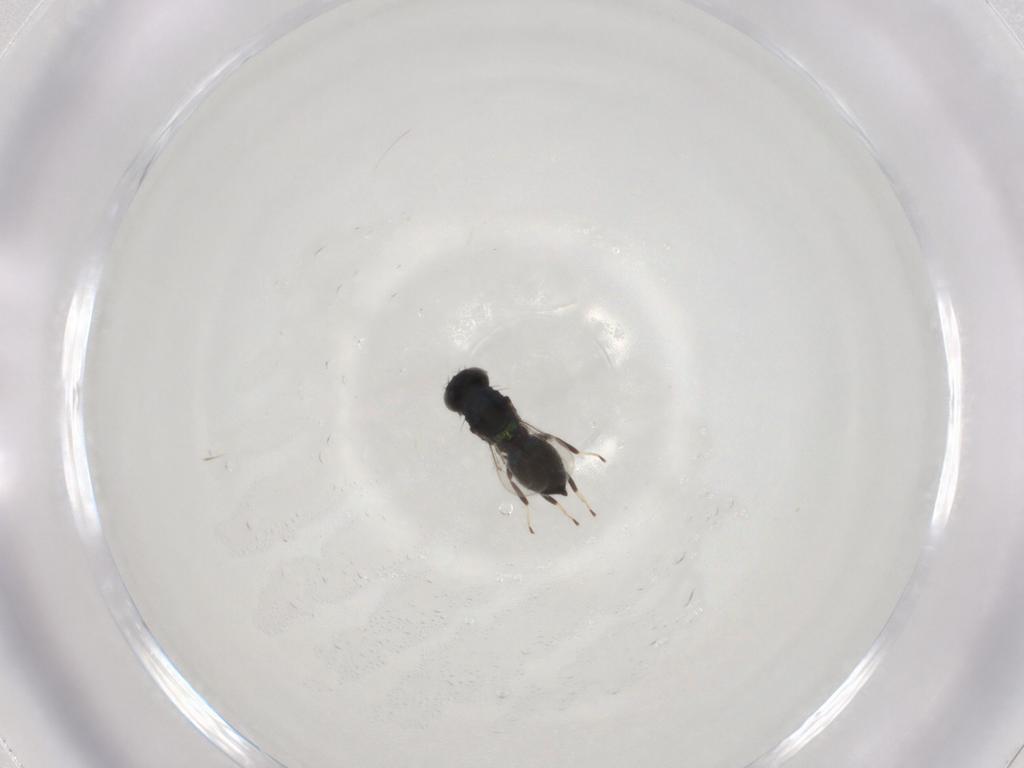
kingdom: Animalia
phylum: Arthropoda
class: Insecta
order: Hymenoptera
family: Eulophidae
